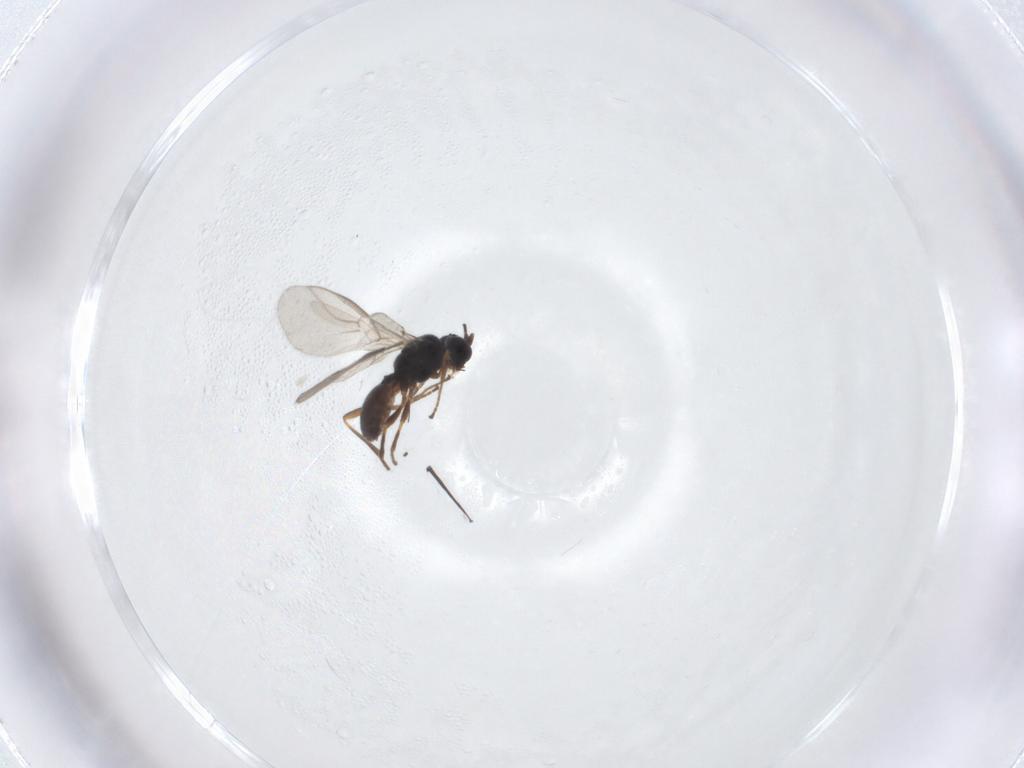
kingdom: Animalia
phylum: Arthropoda
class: Insecta
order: Hymenoptera
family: Braconidae
